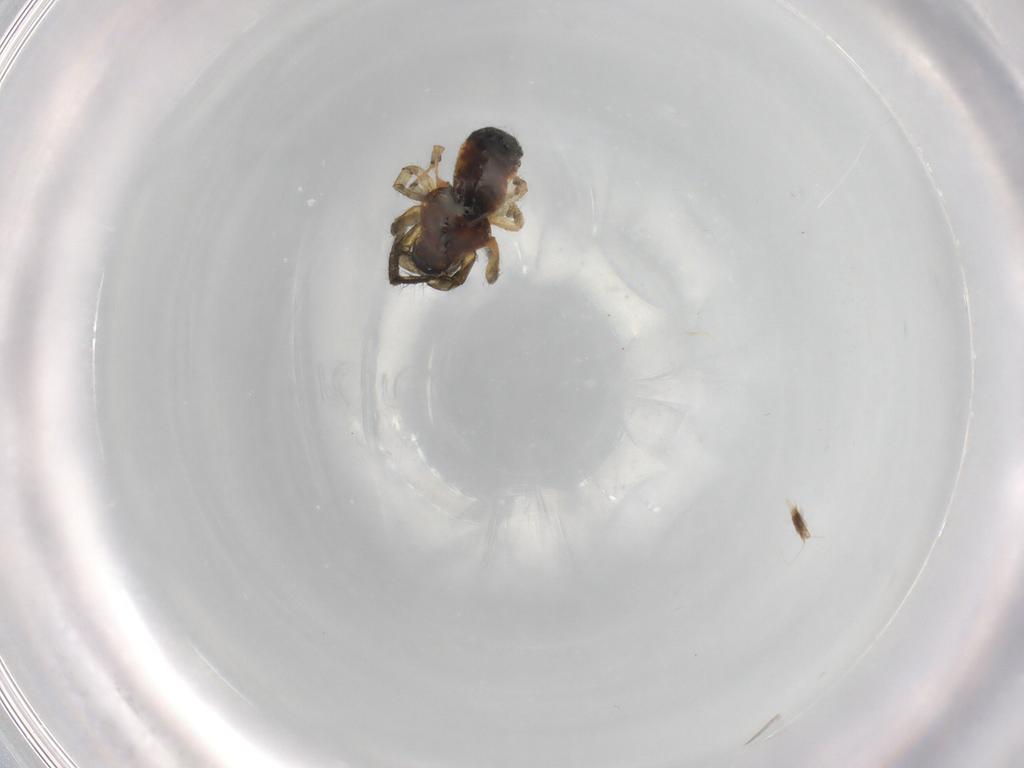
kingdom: Animalia
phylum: Arthropoda
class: Arachnida
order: Araneae
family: Araneidae
